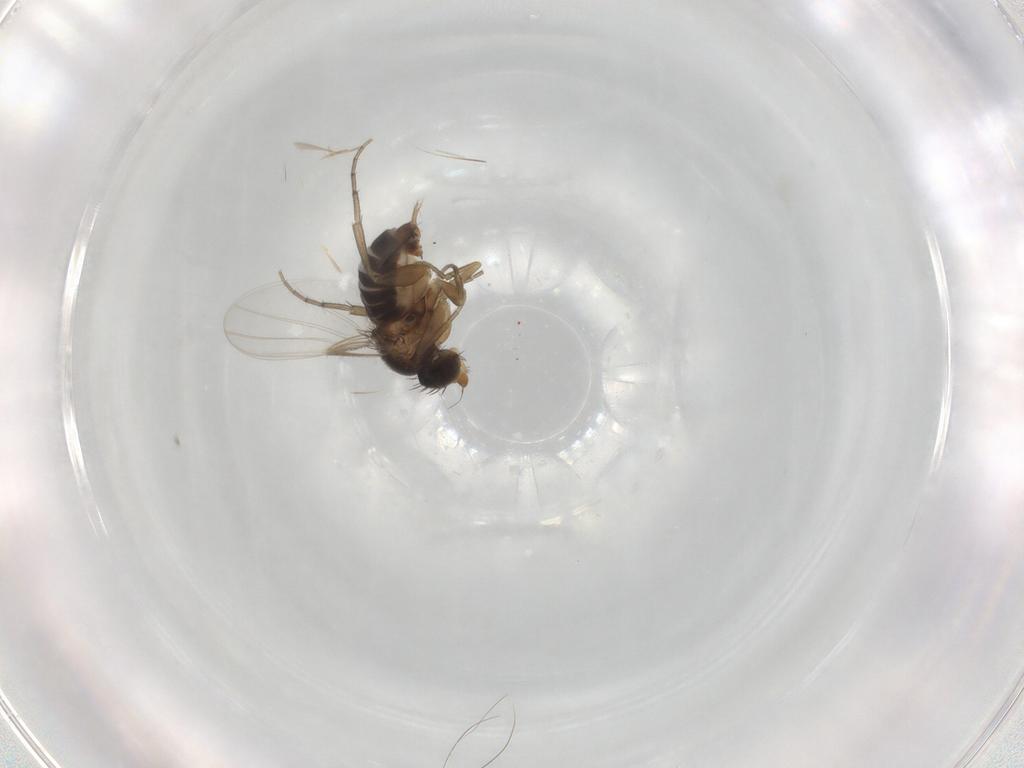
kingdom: Animalia
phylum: Arthropoda
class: Insecta
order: Diptera
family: Phoridae
